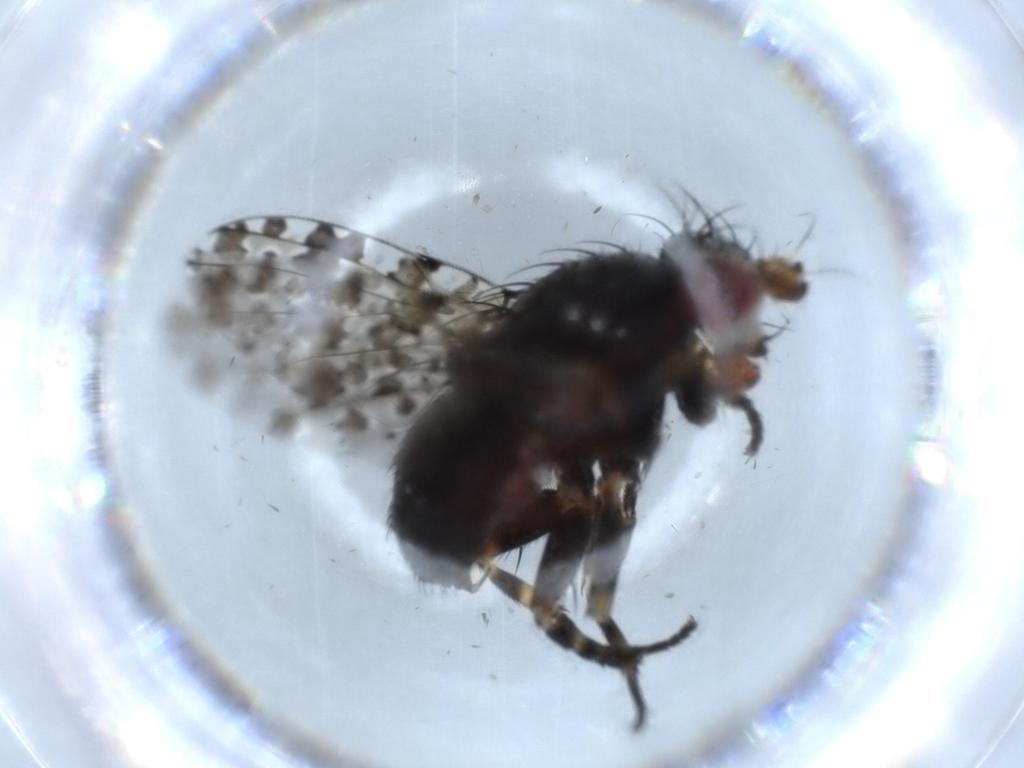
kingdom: Animalia
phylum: Arthropoda
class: Insecta
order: Diptera
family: Odiniidae
